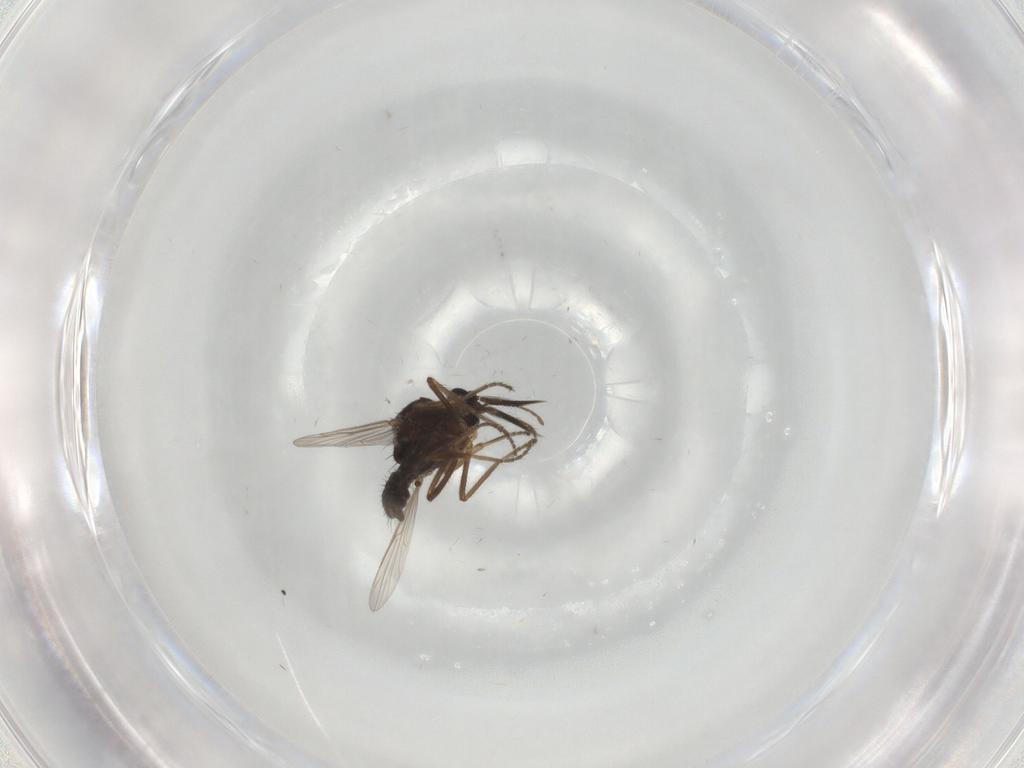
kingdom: Animalia
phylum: Arthropoda
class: Insecta
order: Diptera
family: Ceratopogonidae
